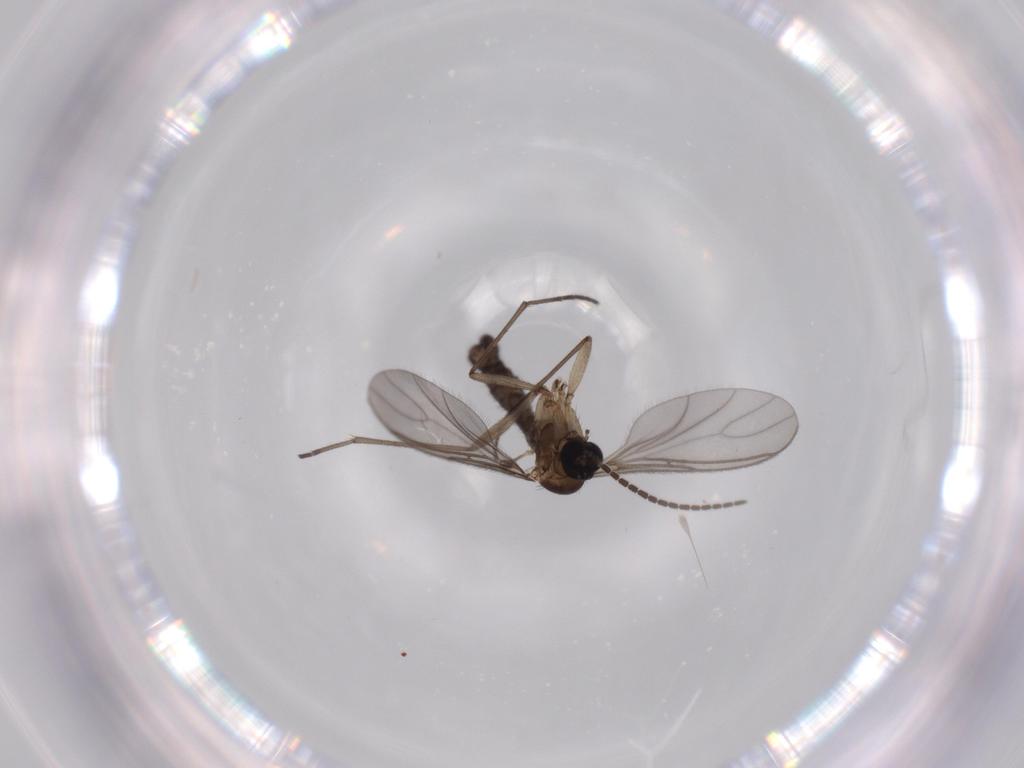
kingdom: Animalia
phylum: Arthropoda
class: Insecta
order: Diptera
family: Sciaridae
